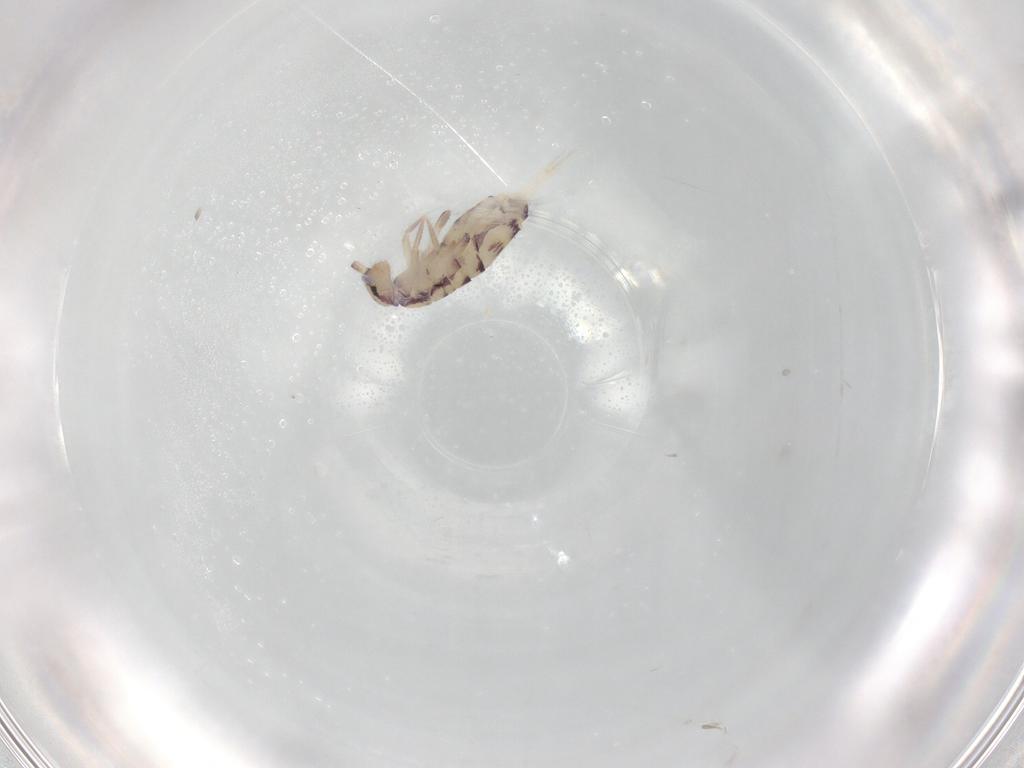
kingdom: Animalia
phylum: Arthropoda
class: Collembola
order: Entomobryomorpha
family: Entomobryidae
